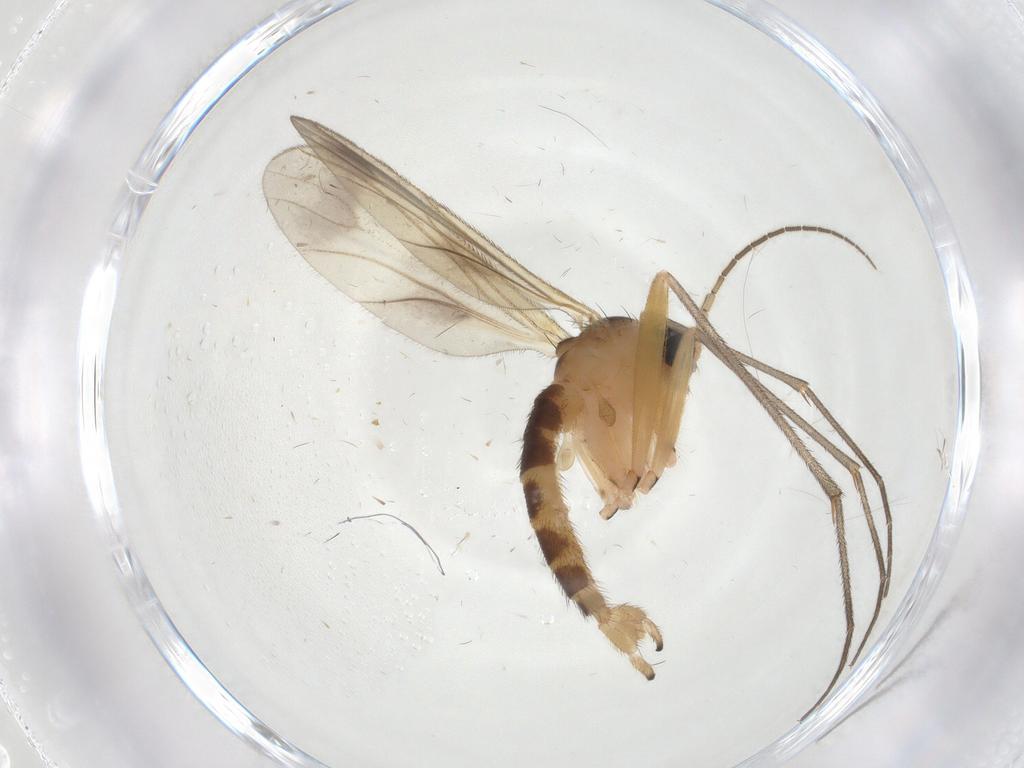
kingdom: Animalia
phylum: Arthropoda
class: Insecta
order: Diptera
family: Sciaridae
